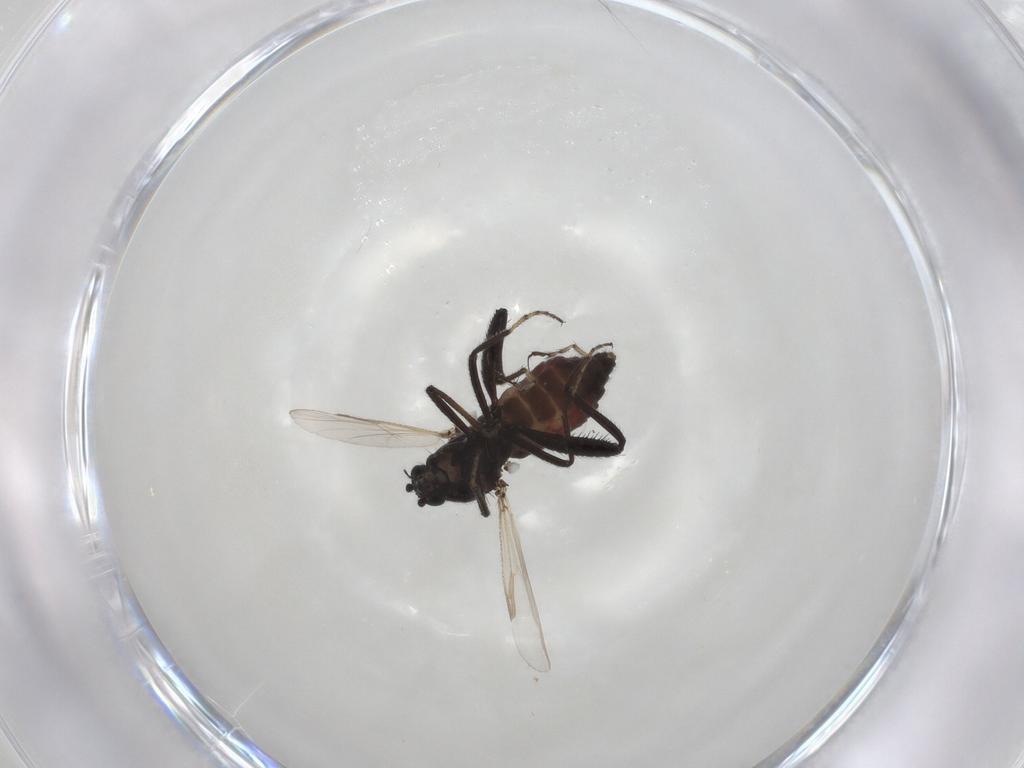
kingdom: Animalia
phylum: Arthropoda
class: Insecta
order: Diptera
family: Ceratopogonidae
